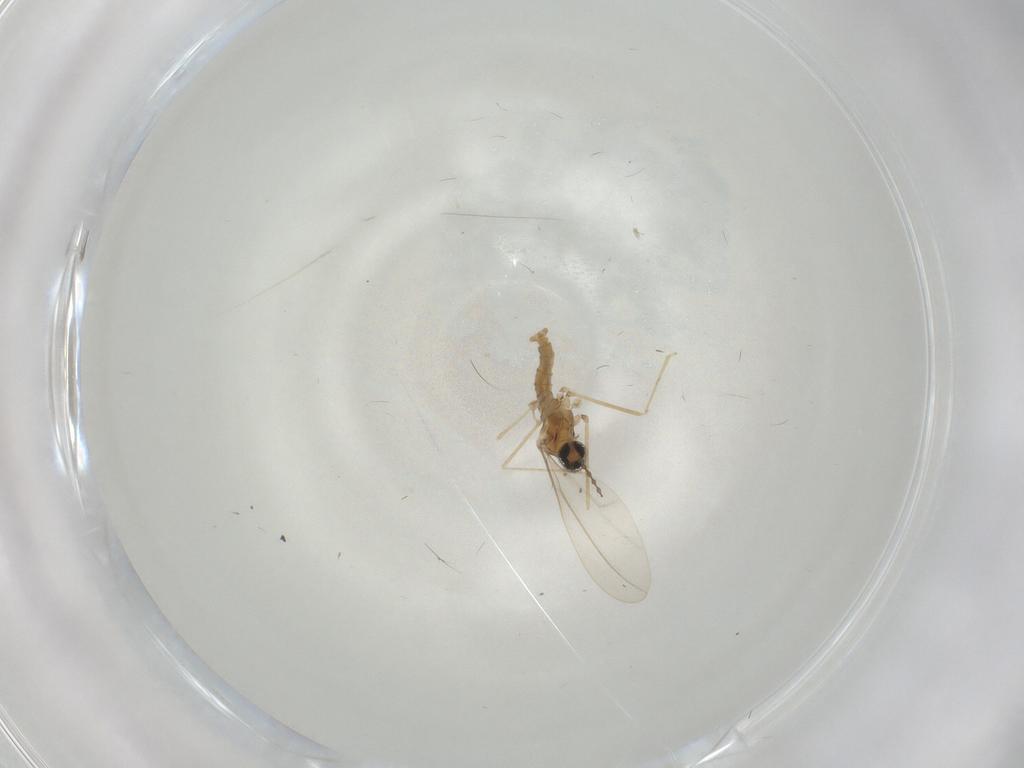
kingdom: Animalia
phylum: Arthropoda
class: Insecta
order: Diptera
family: Cecidomyiidae
